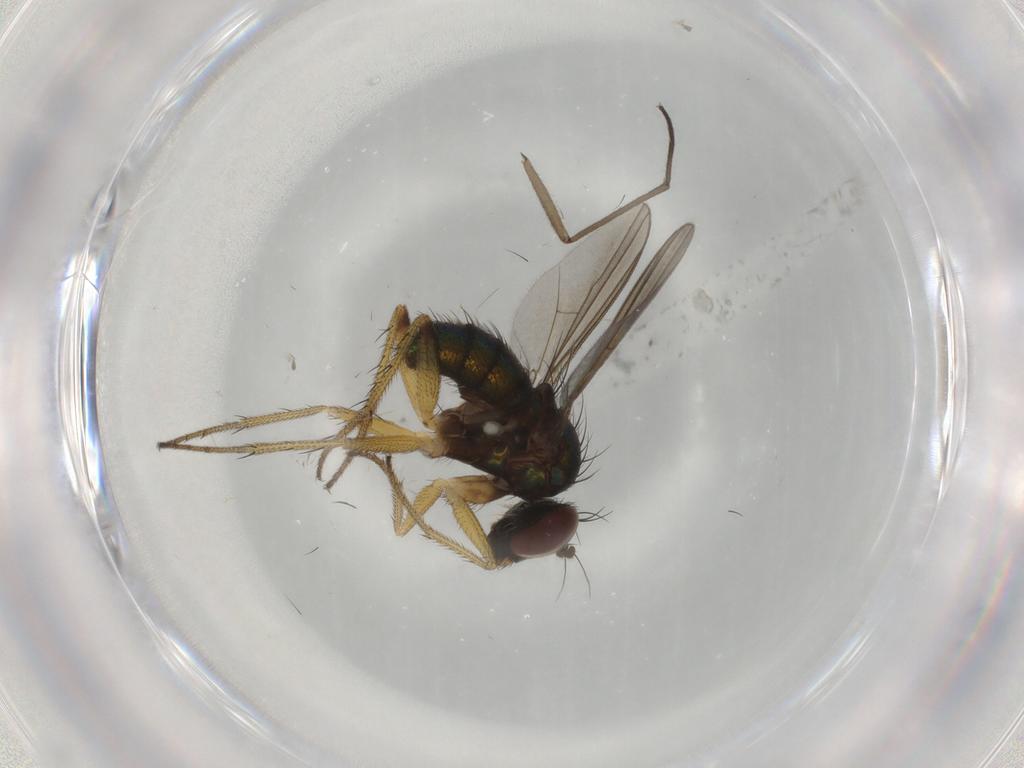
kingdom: Animalia
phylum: Arthropoda
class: Insecta
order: Diptera
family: Dolichopodidae
